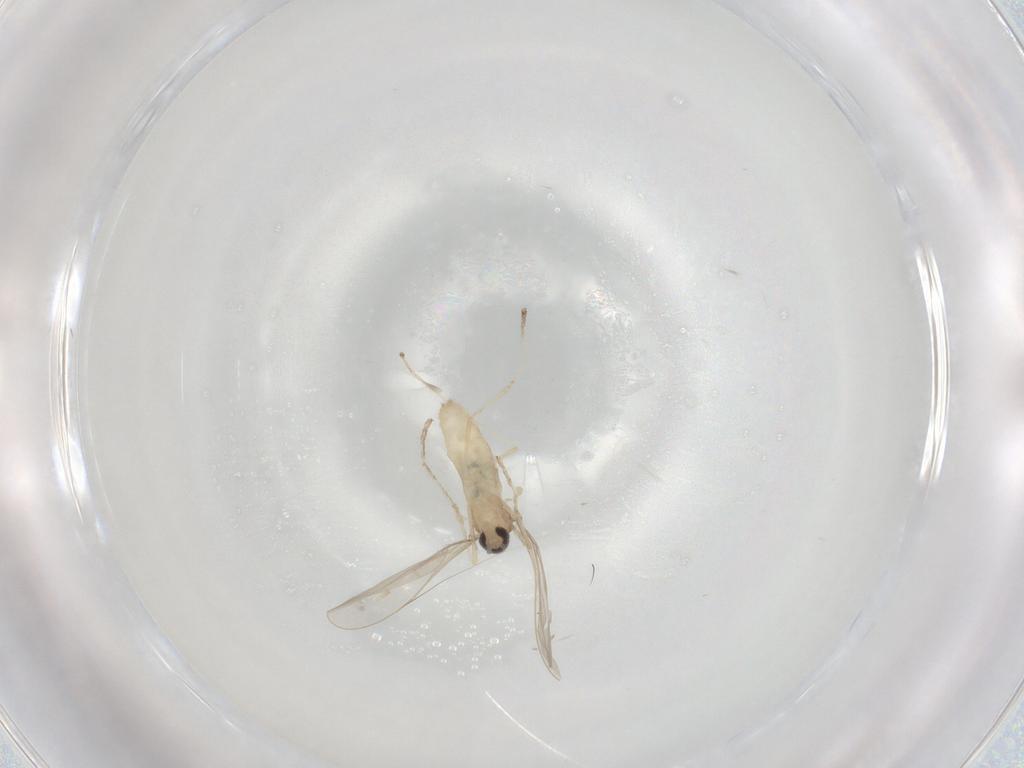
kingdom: Animalia
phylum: Arthropoda
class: Insecta
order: Diptera
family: Cecidomyiidae
